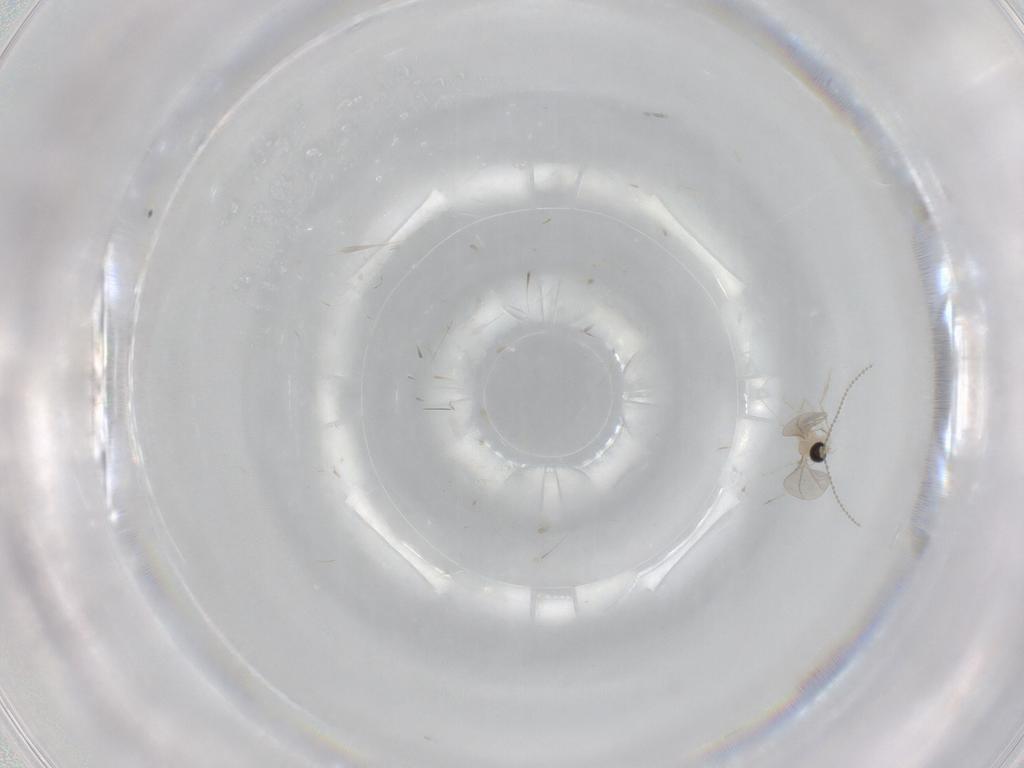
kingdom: Animalia
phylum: Arthropoda
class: Insecta
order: Diptera
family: Cecidomyiidae
